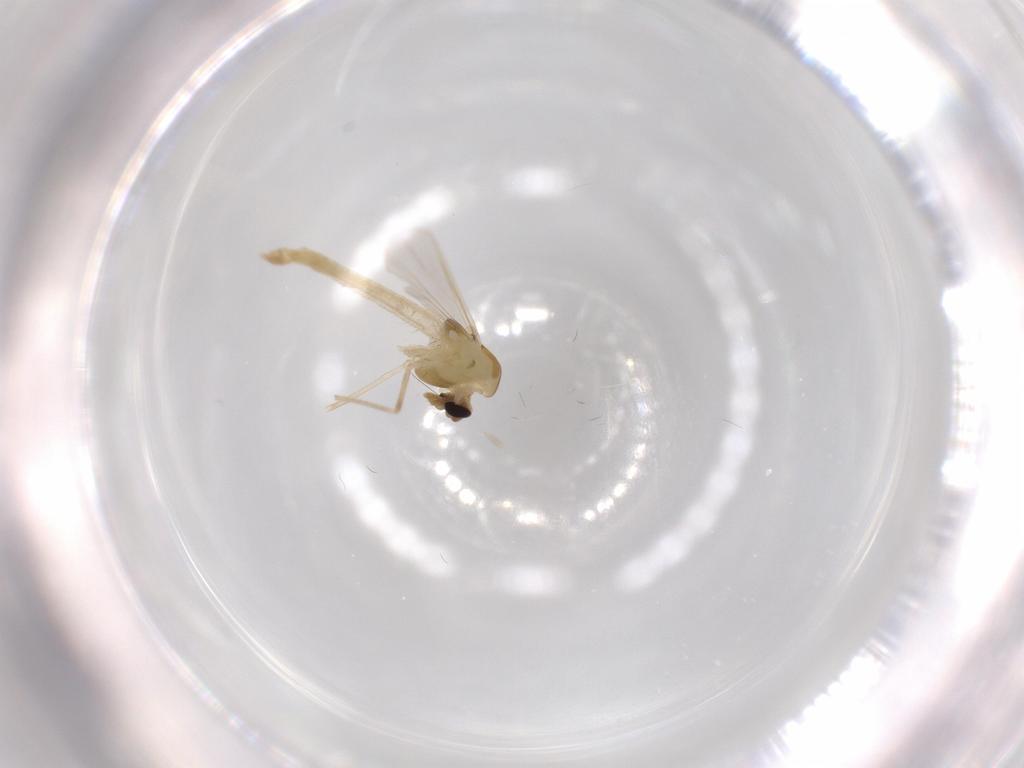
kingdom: Animalia
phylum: Arthropoda
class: Insecta
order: Diptera
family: Chironomidae
